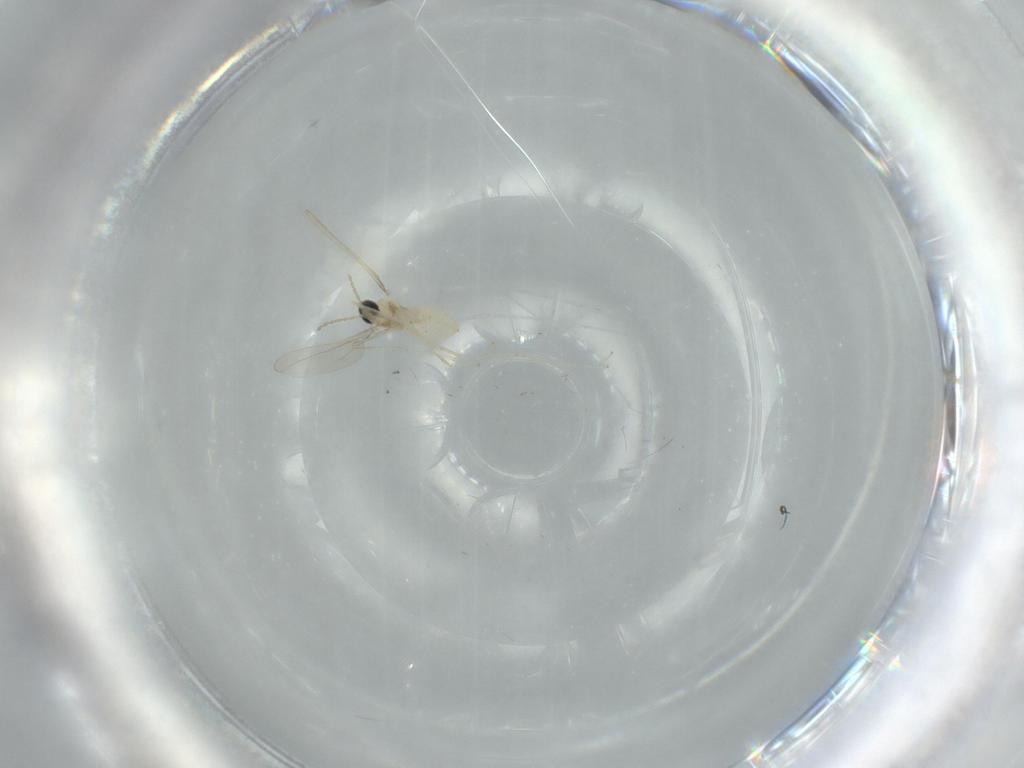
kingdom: Animalia
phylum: Arthropoda
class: Insecta
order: Diptera
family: Cecidomyiidae
